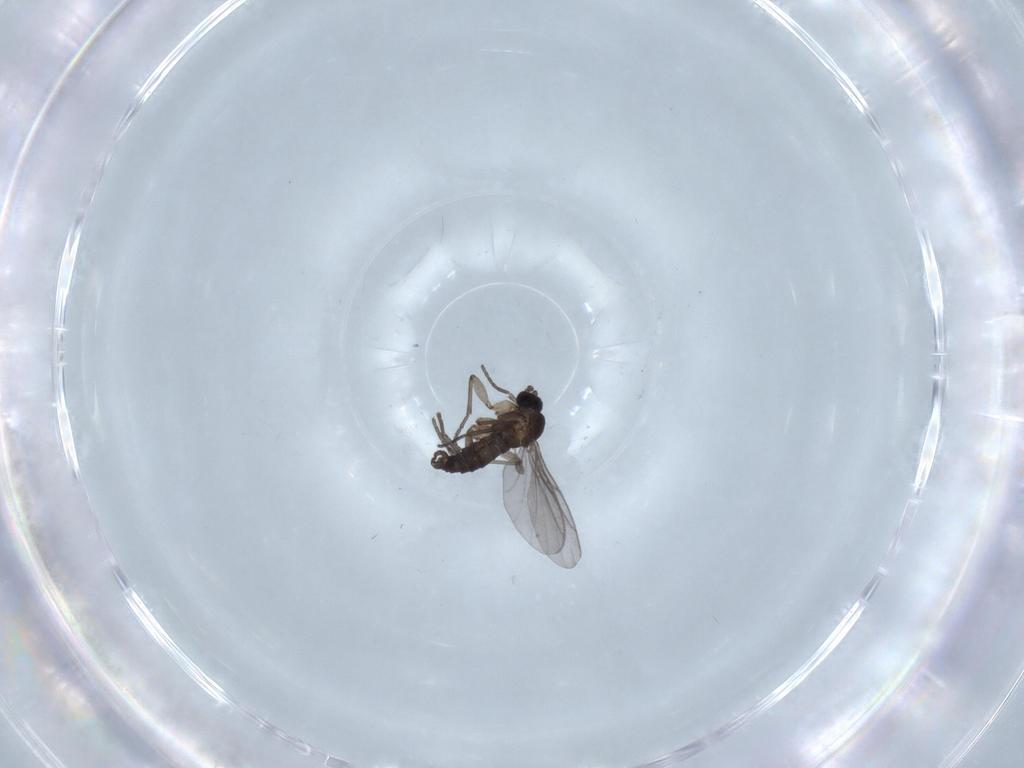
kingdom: Animalia
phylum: Arthropoda
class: Insecta
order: Diptera
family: Chironomidae
